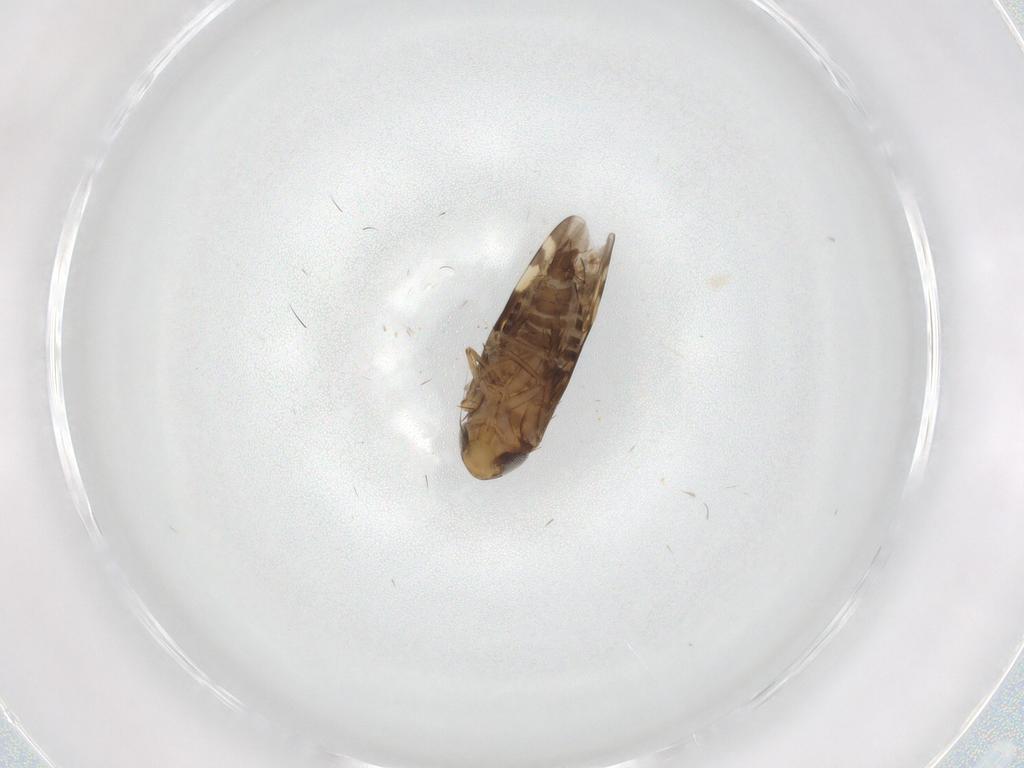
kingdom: Animalia
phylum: Arthropoda
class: Insecta
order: Hemiptera
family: Cicadellidae
